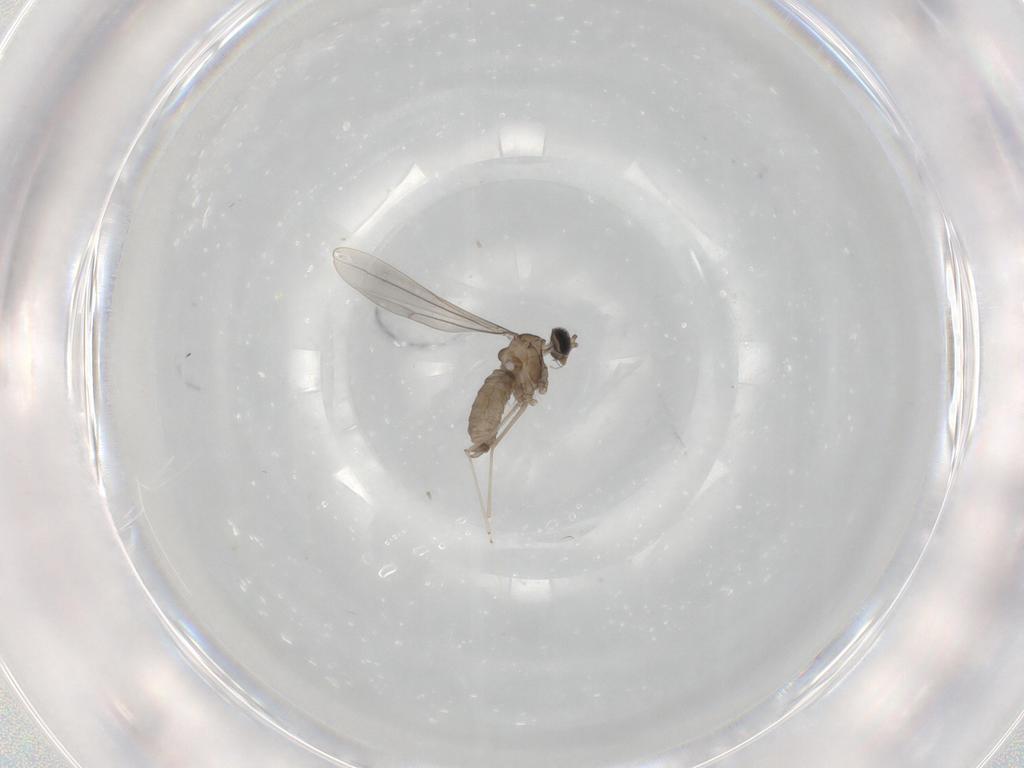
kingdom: Animalia
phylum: Arthropoda
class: Insecta
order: Diptera
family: Cecidomyiidae
